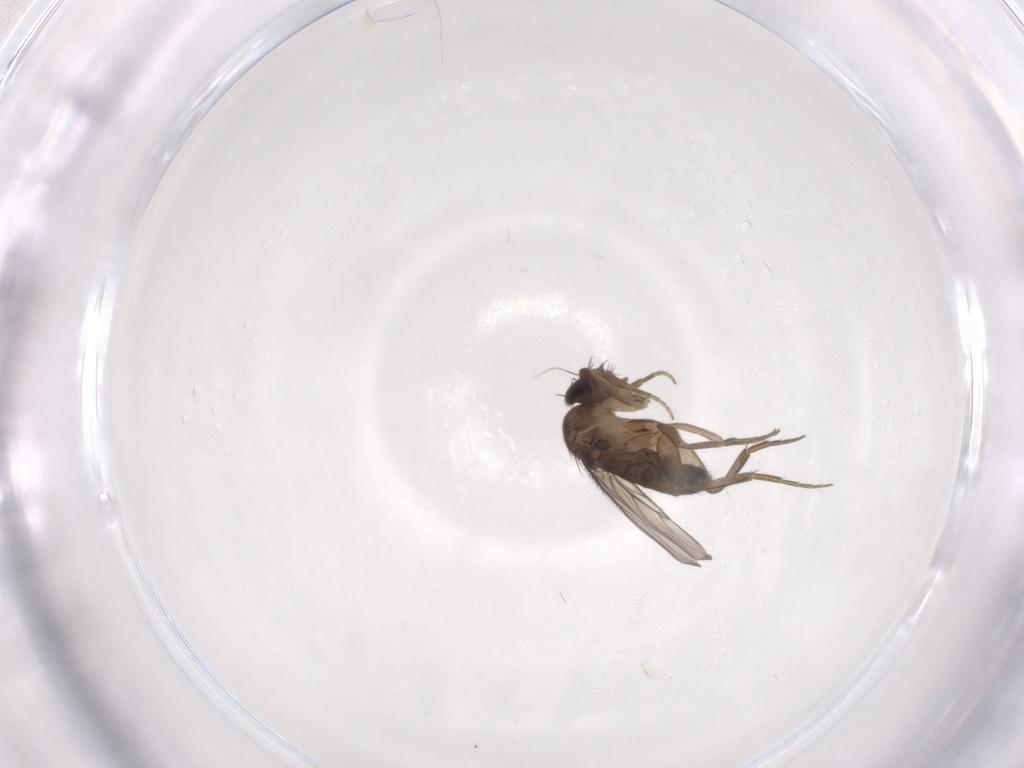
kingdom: Animalia
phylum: Arthropoda
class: Insecta
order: Diptera
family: Phoridae
